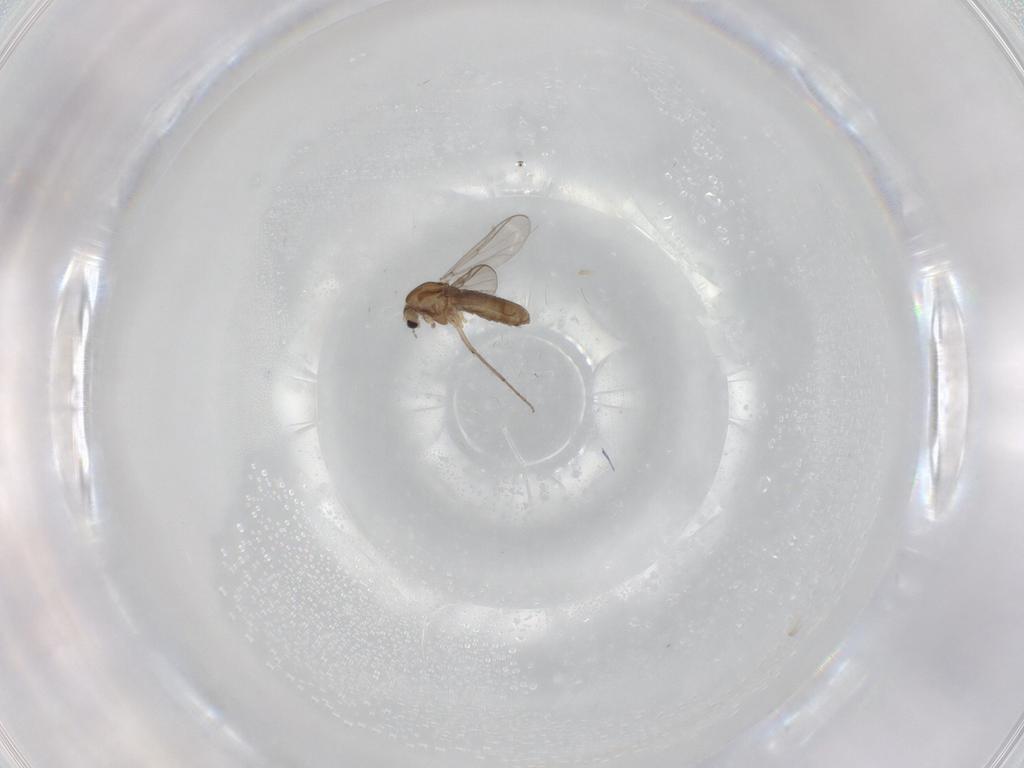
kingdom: Animalia
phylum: Arthropoda
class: Insecta
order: Diptera
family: Chironomidae
